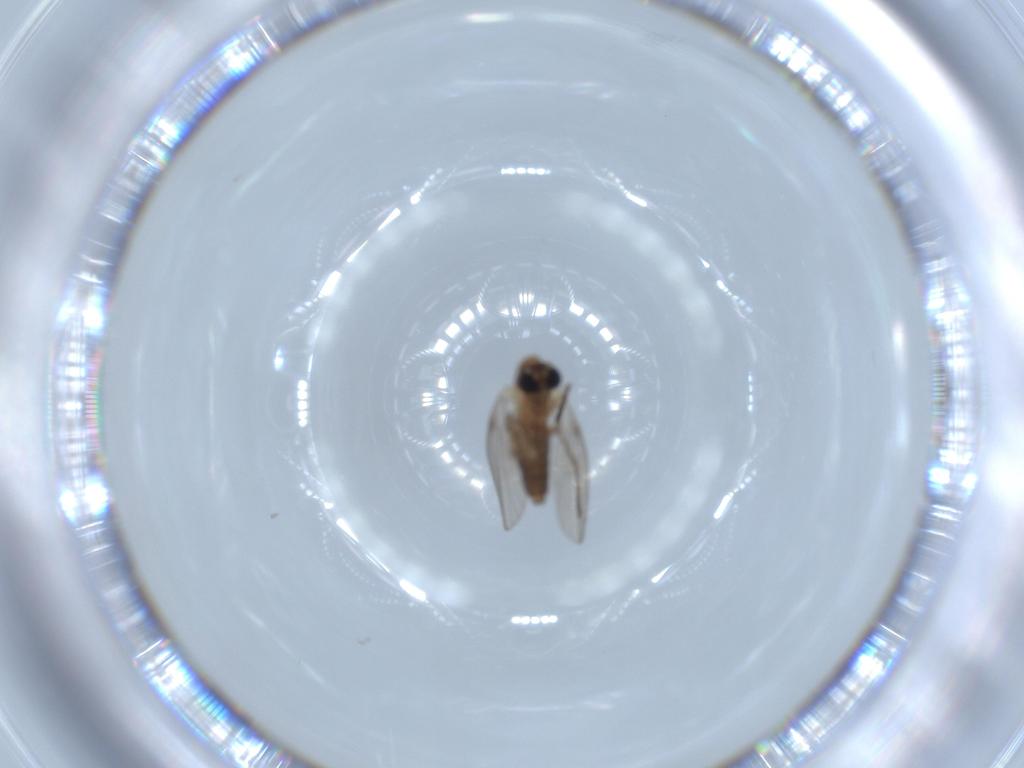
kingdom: Animalia
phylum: Arthropoda
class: Insecta
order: Diptera
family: Psychodidae
